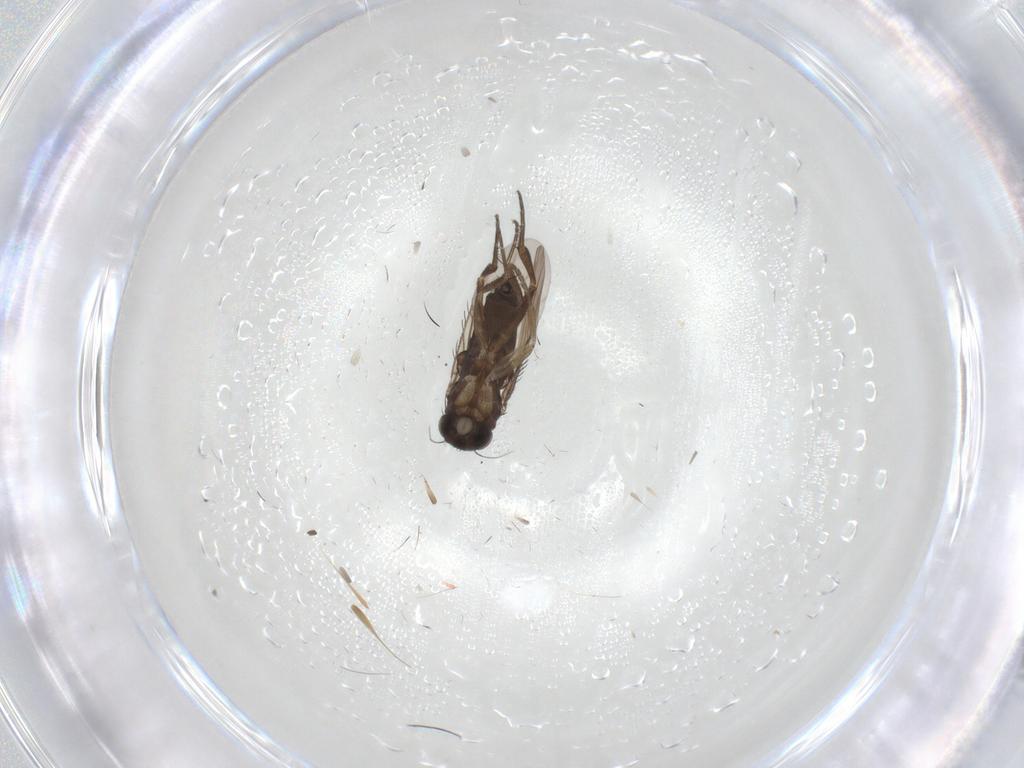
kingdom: Animalia
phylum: Arthropoda
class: Insecta
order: Diptera
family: Phoridae
